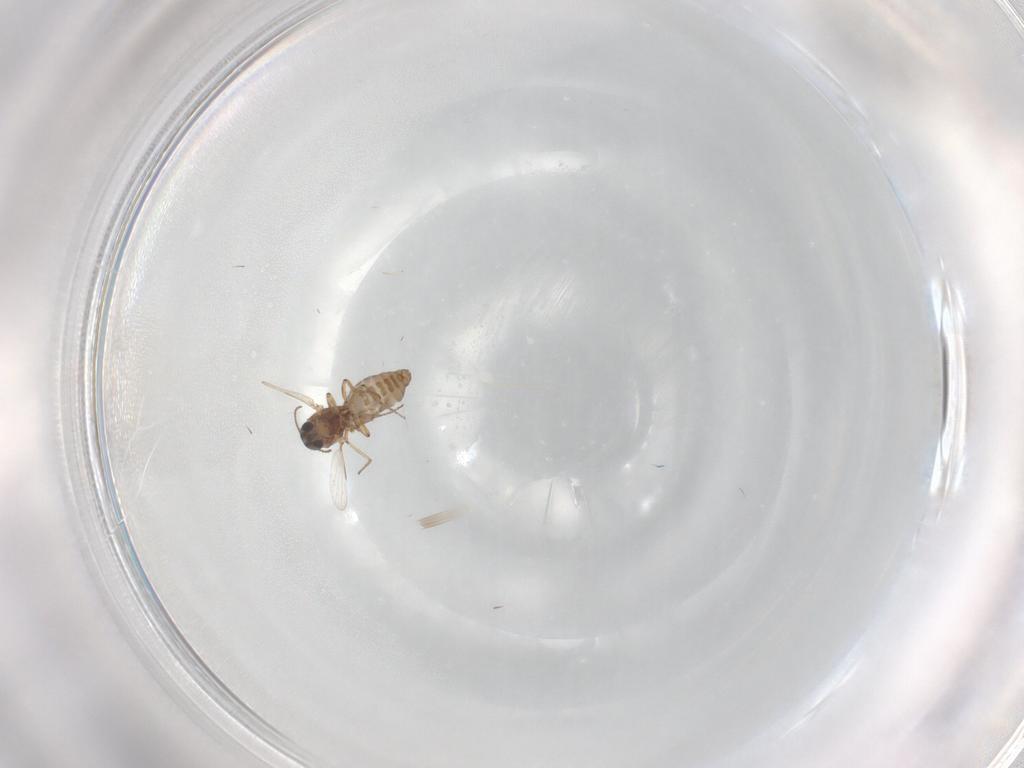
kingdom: Animalia
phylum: Arthropoda
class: Insecta
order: Diptera
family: Ceratopogonidae
